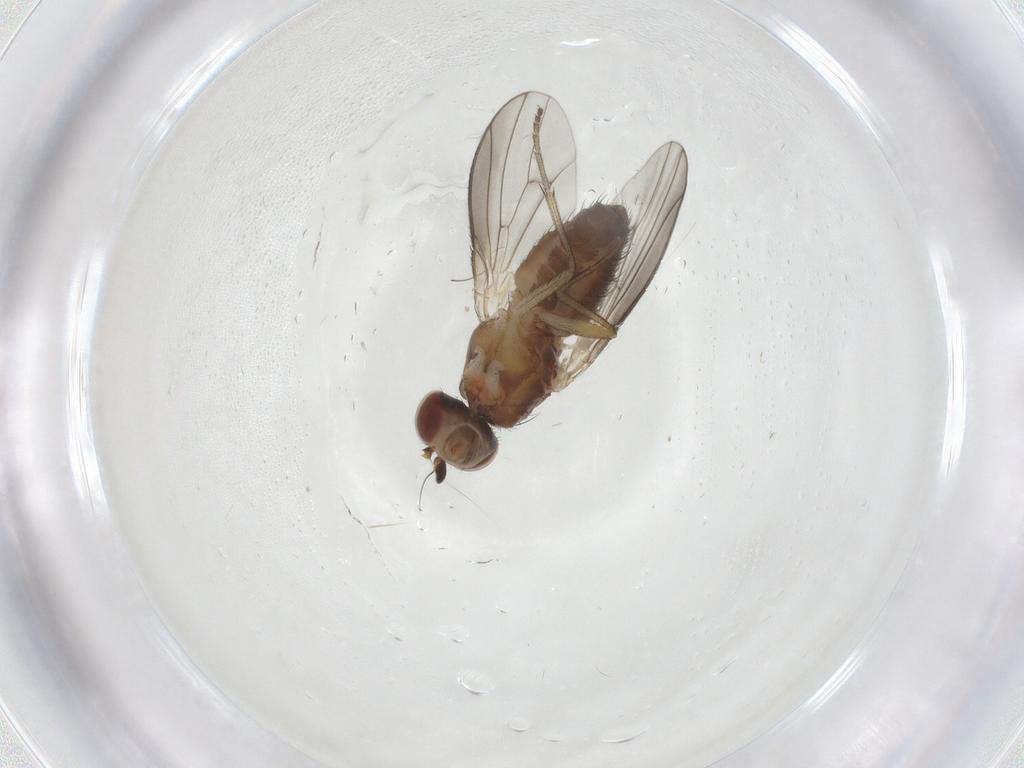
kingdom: Animalia
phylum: Arthropoda
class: Insecta
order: Diptera
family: Heleomyzidae
